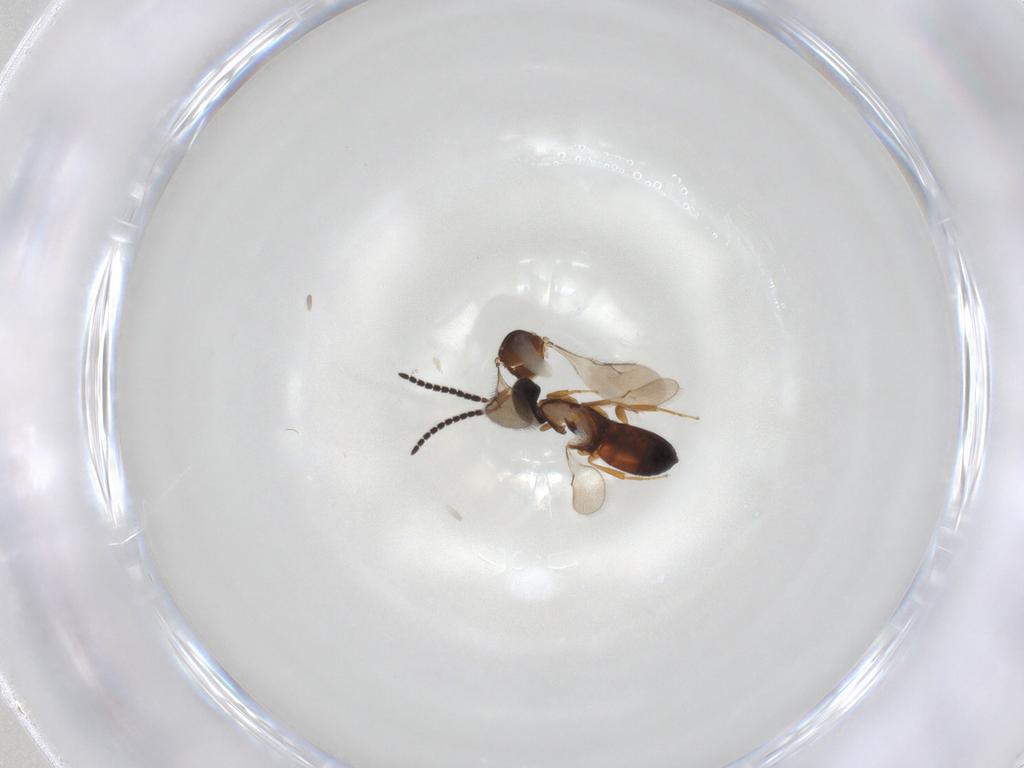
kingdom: Animalia
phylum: Arthropoda
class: Insecta
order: Hymenoptera
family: Scelionidae
